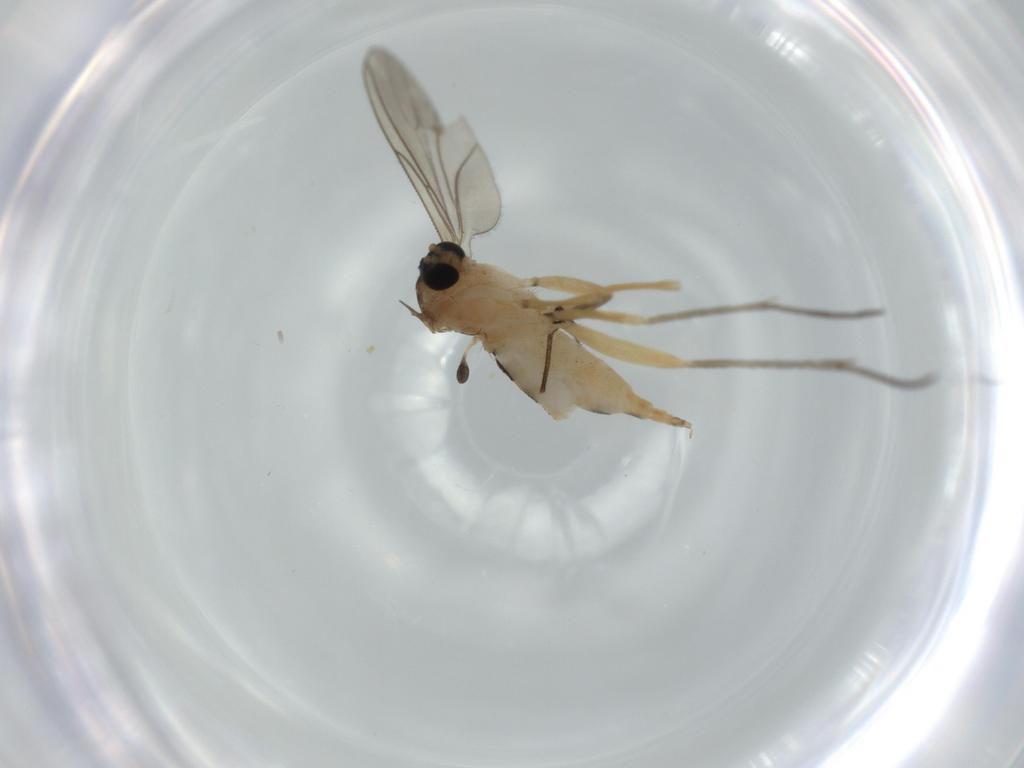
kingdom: Animalia
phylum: Arthropoda
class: Insecta
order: Diptera
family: Sciaridae
